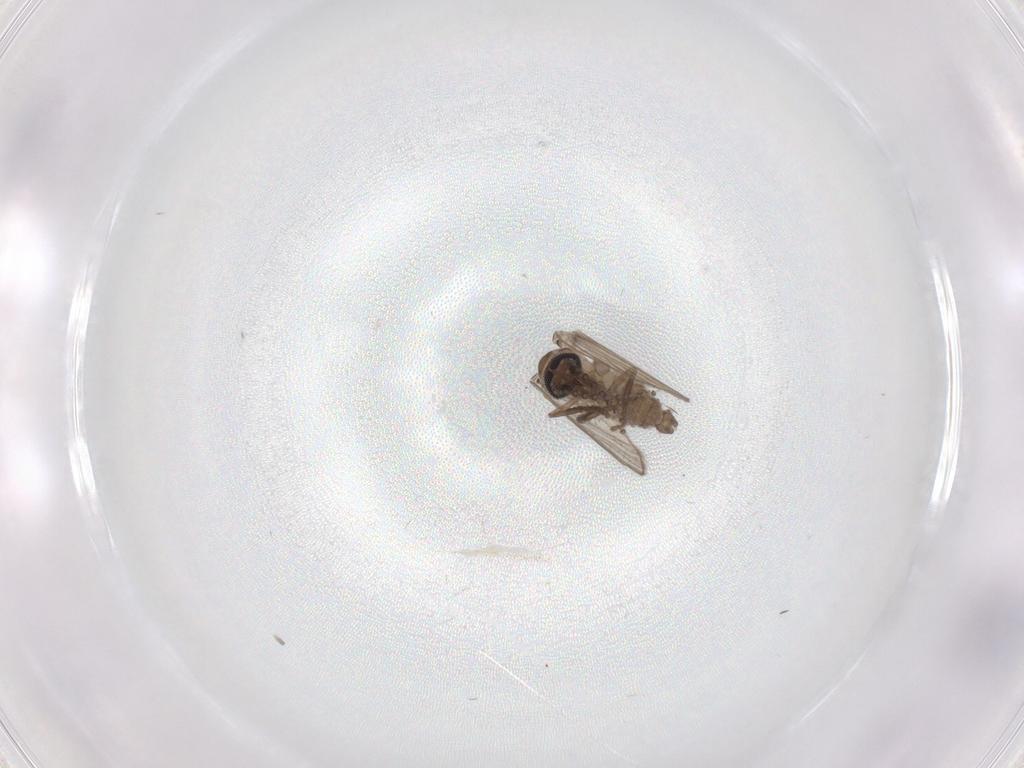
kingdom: Animalia
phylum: Arthropoda
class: Insecta
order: Diptera
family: Psychodidae
